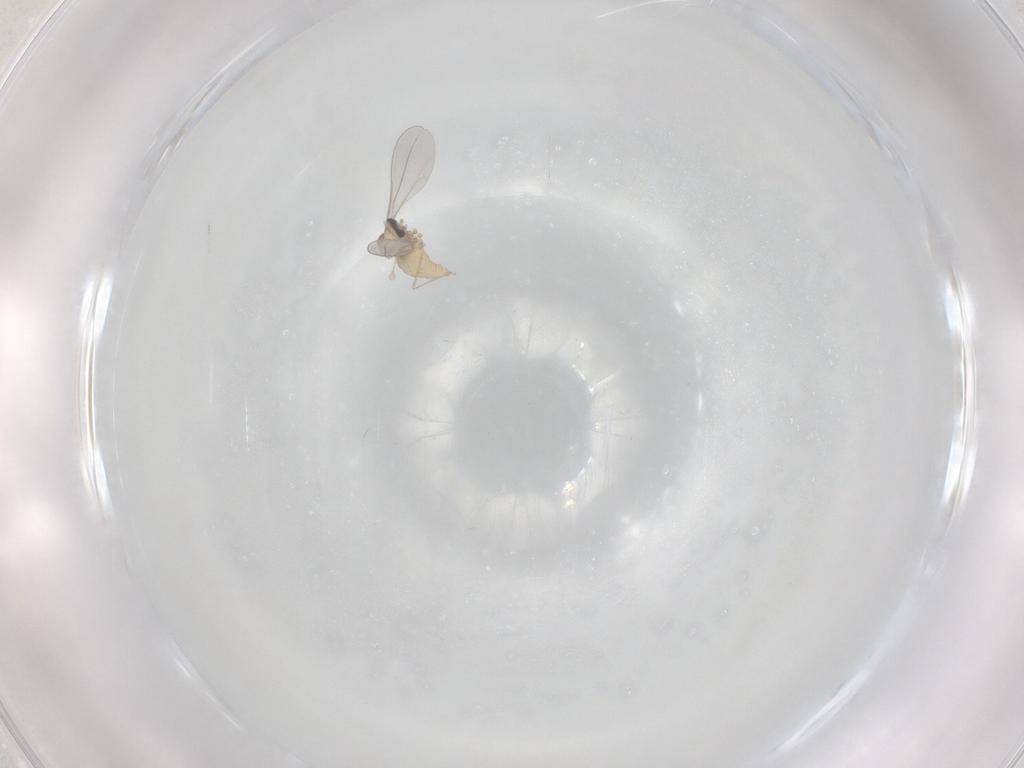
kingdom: Animalia
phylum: Arthropoda
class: Insecta
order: Diptera
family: Cecidomyiidae
